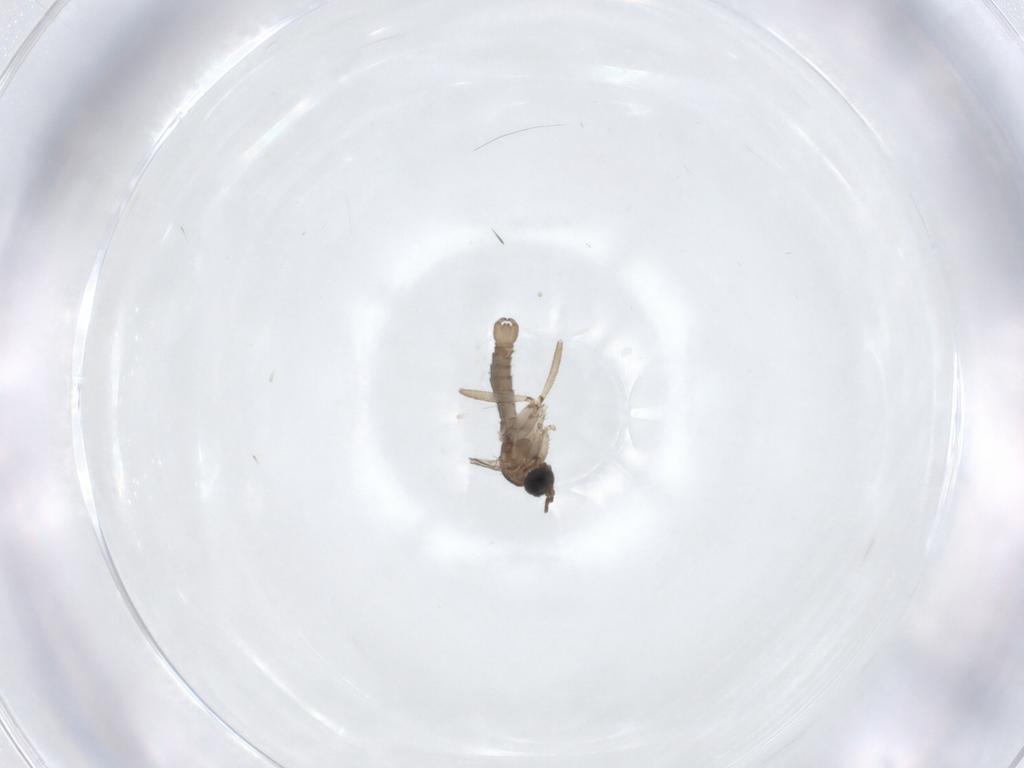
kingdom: Animalia
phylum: Arthropoda
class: Insecta
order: Diptera
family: Sciaridae
